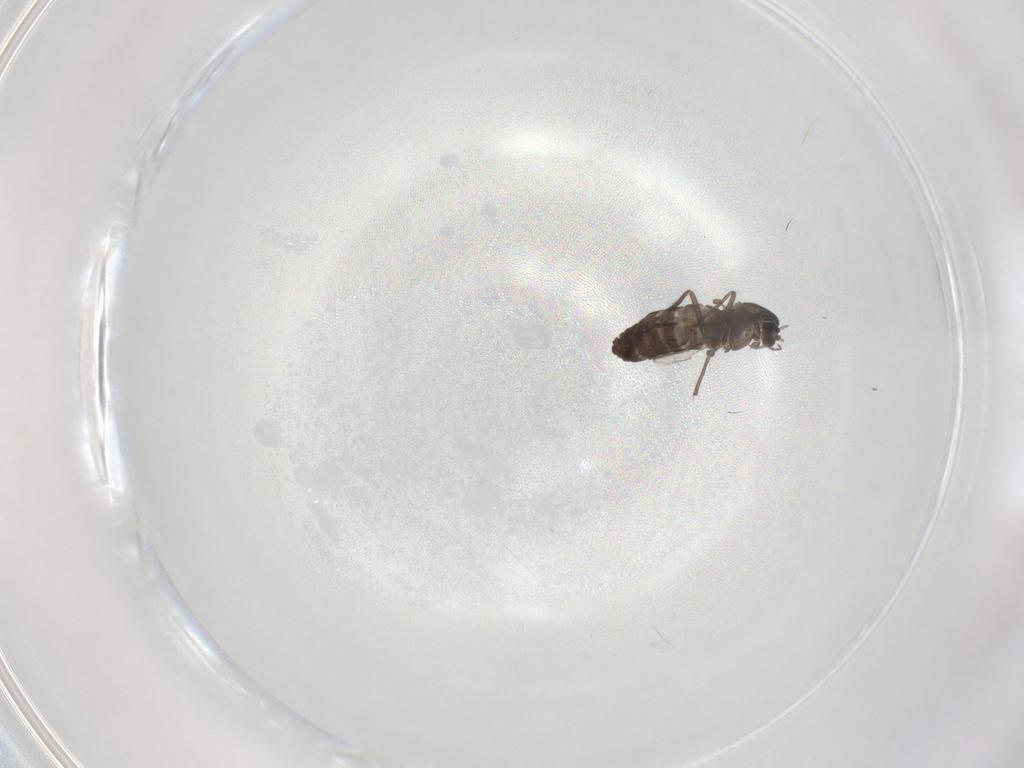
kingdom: Animalia
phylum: Arthropoda
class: Insecta
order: Diptera
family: Chironomidae
